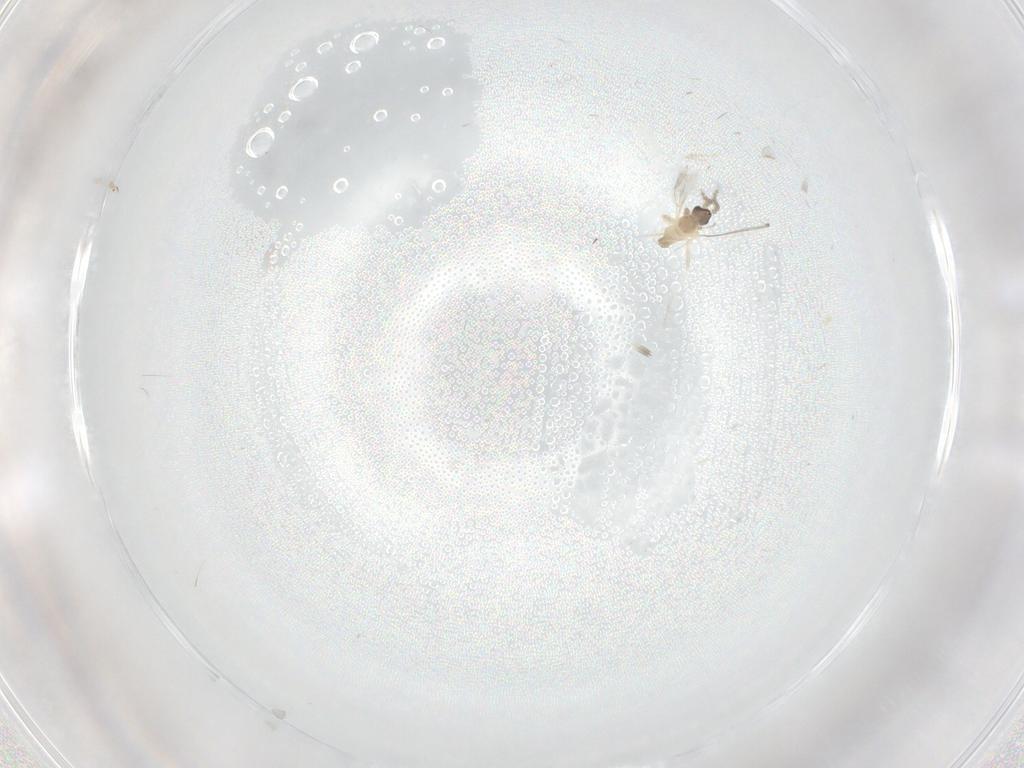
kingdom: Animalia
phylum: Arthropoda
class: Insecta
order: Diptera
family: Cecidomyiidae
